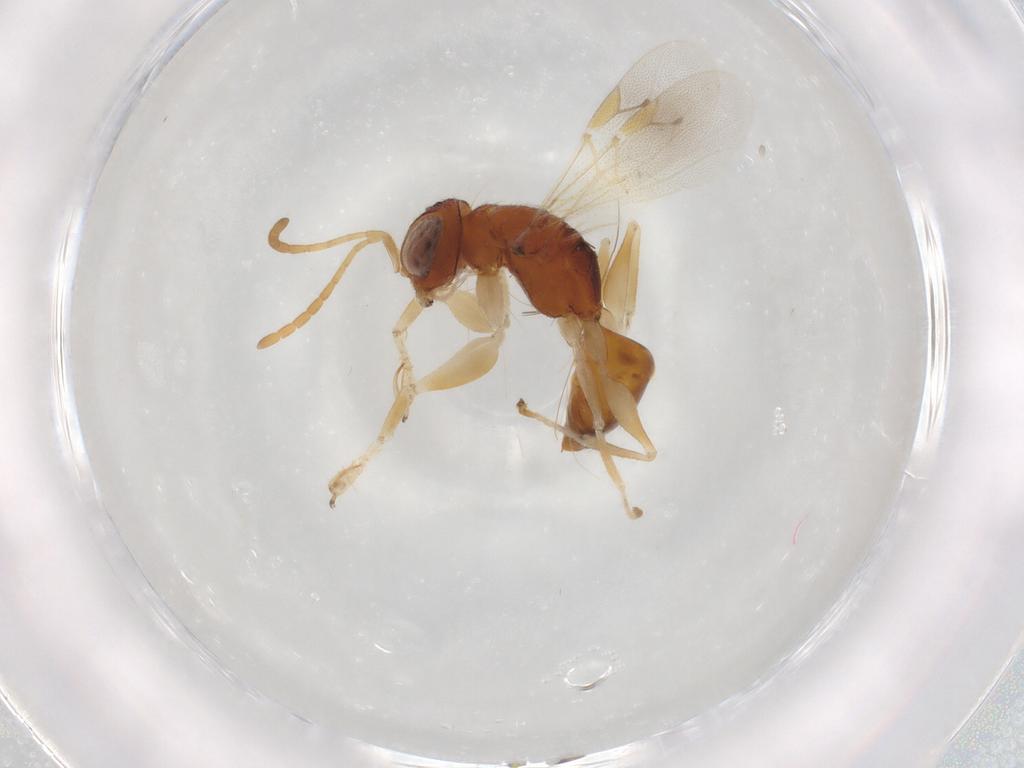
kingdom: Animalia
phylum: Arthropoda
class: Insecta
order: Hymenoptera
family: Dryinidae
